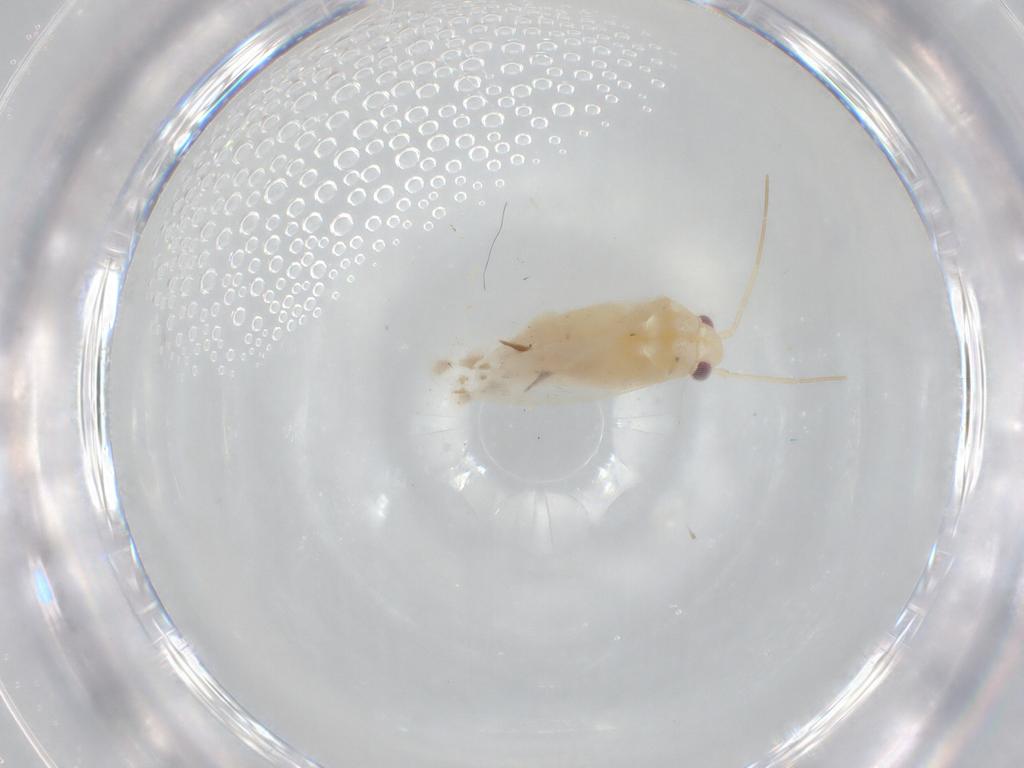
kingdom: Animalia
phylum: Arthropoda
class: Insecta
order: Hemiptera
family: Miridae
